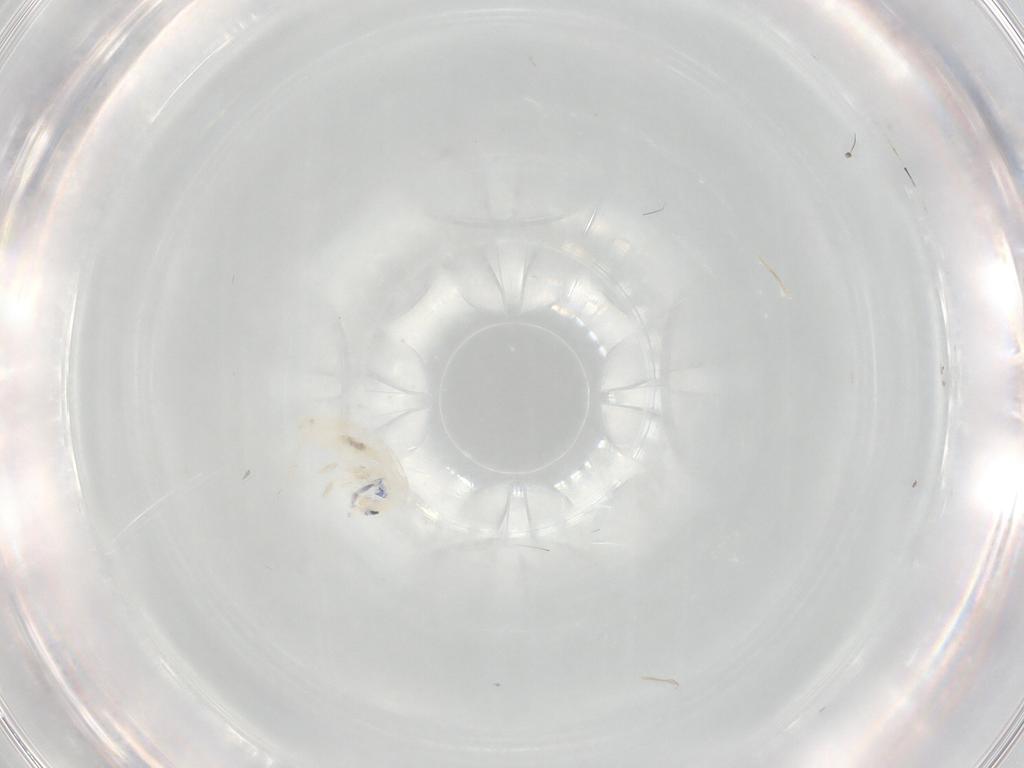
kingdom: Animalia
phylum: Arthropoda
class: Collembola
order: Entomobryomorpha
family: Entomobryidae
